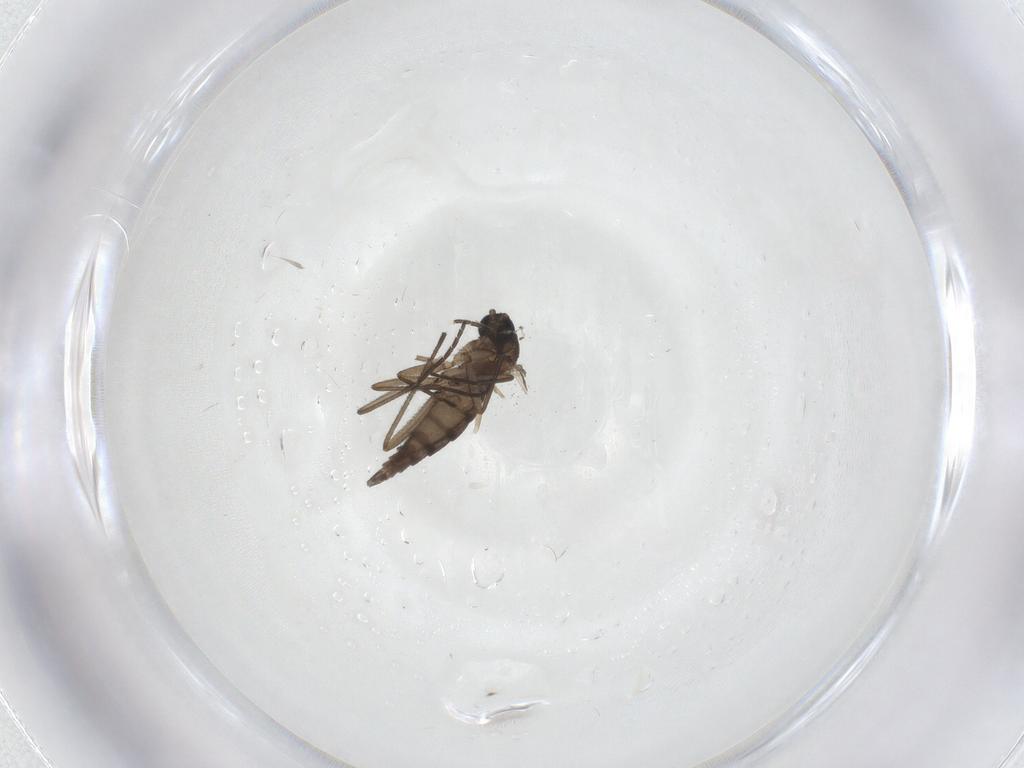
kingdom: Animalia
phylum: Arthropoda
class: Insecta
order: Diptera
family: Sciaridae
